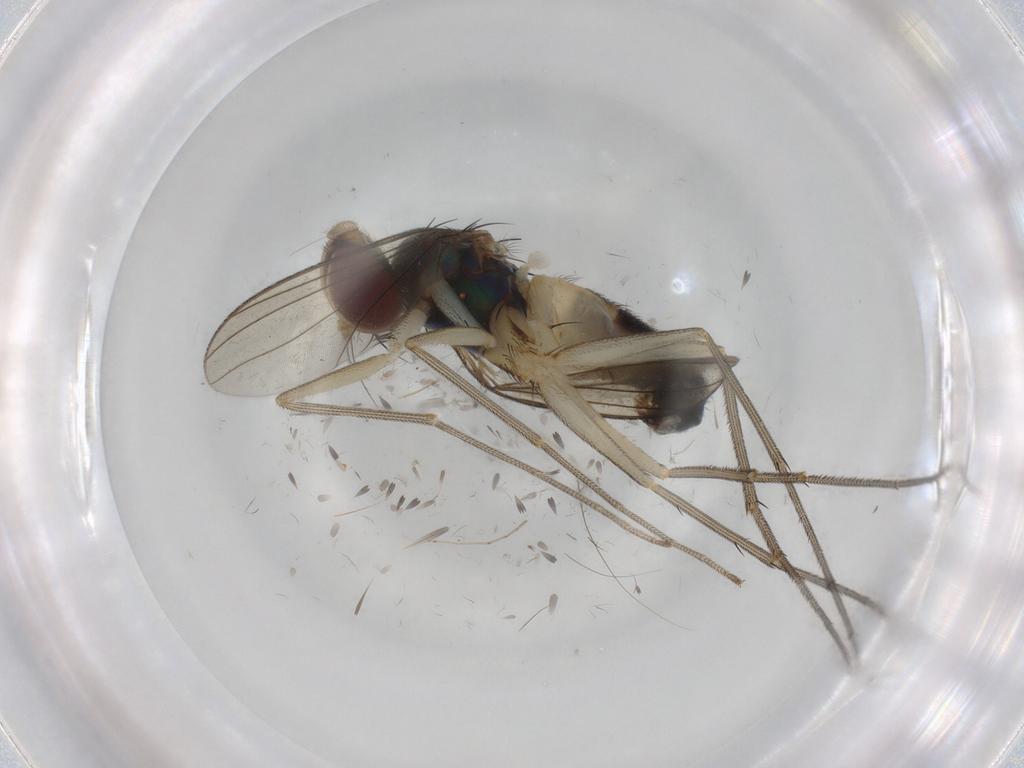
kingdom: Animalia
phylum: Arthropoda
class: Insecta
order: Diptera
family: Dolichopodidae
